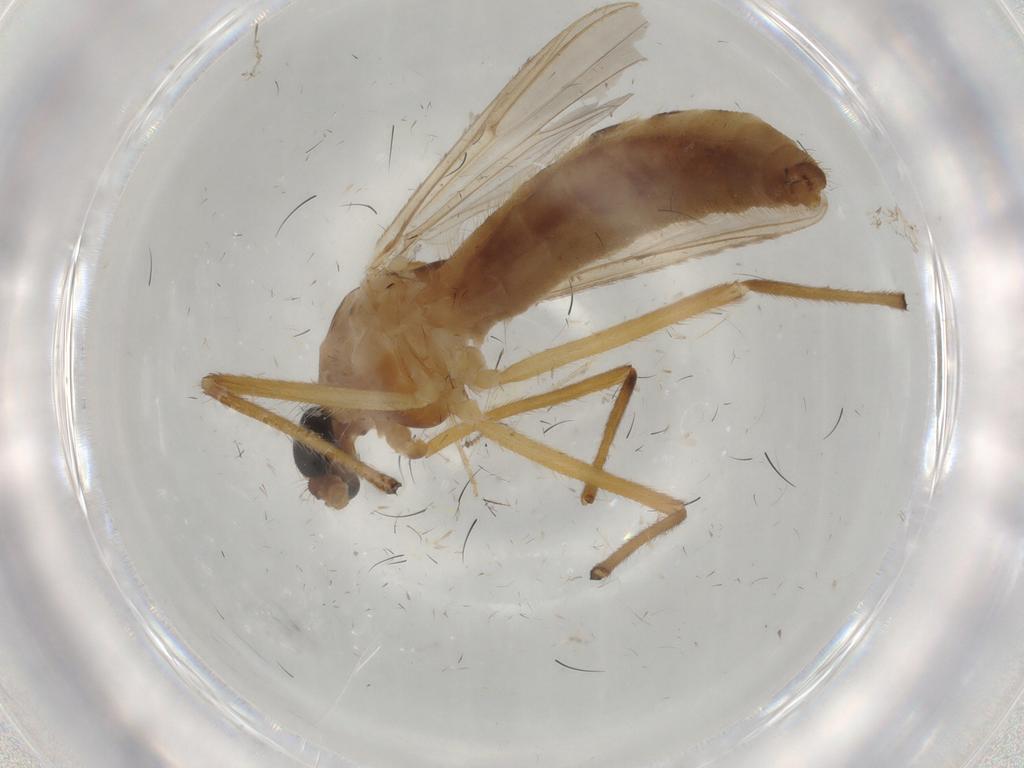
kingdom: Animalia
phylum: Arthropoda
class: Insecta
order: Diptera
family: Ceratopogonidae
